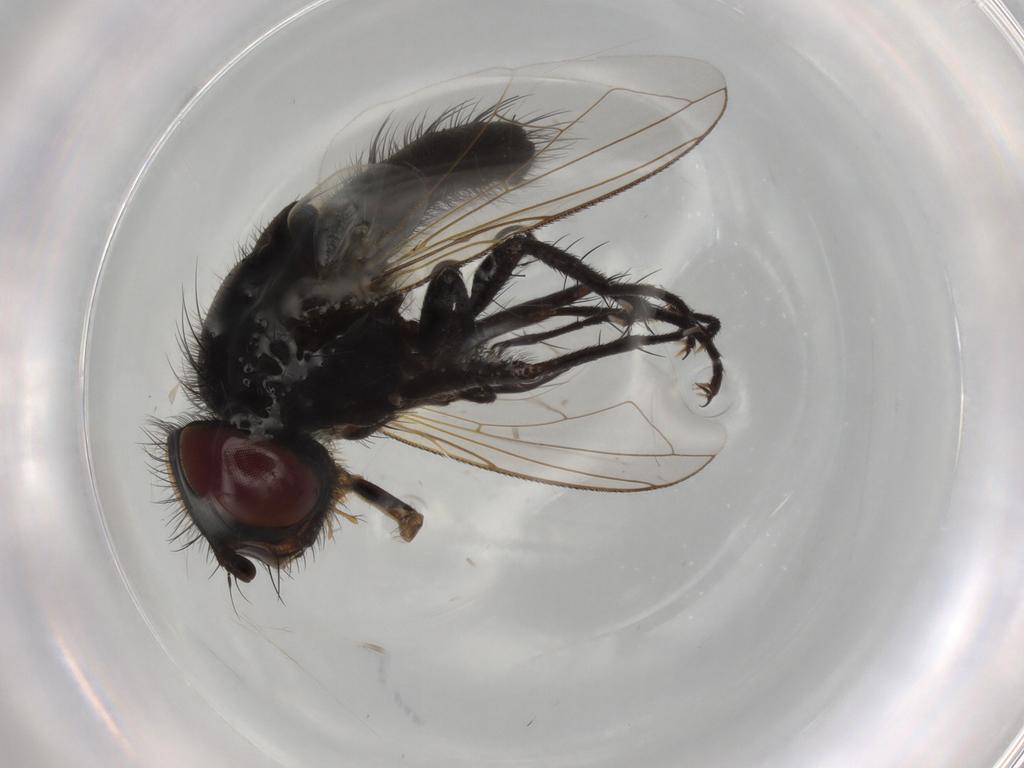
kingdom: Animalia
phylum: Arthropoda
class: Insecta
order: Diptera
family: Tachinidae
